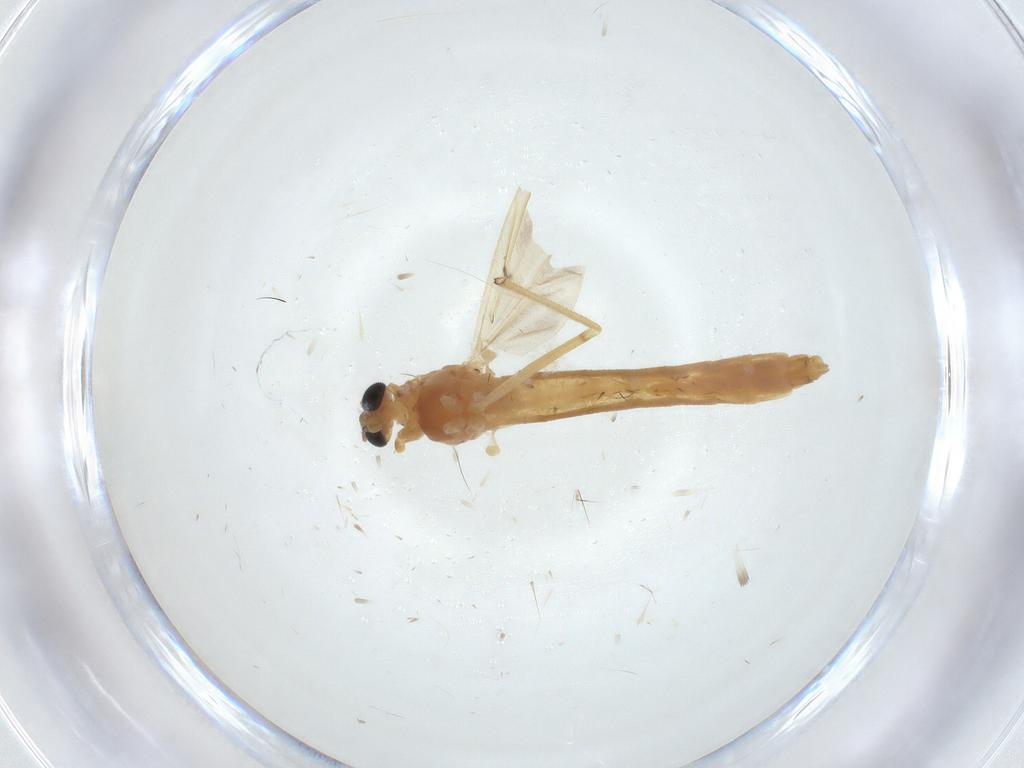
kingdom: Animalia
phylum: Arthropoda
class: Insecta
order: Diptera
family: Chironomidae
